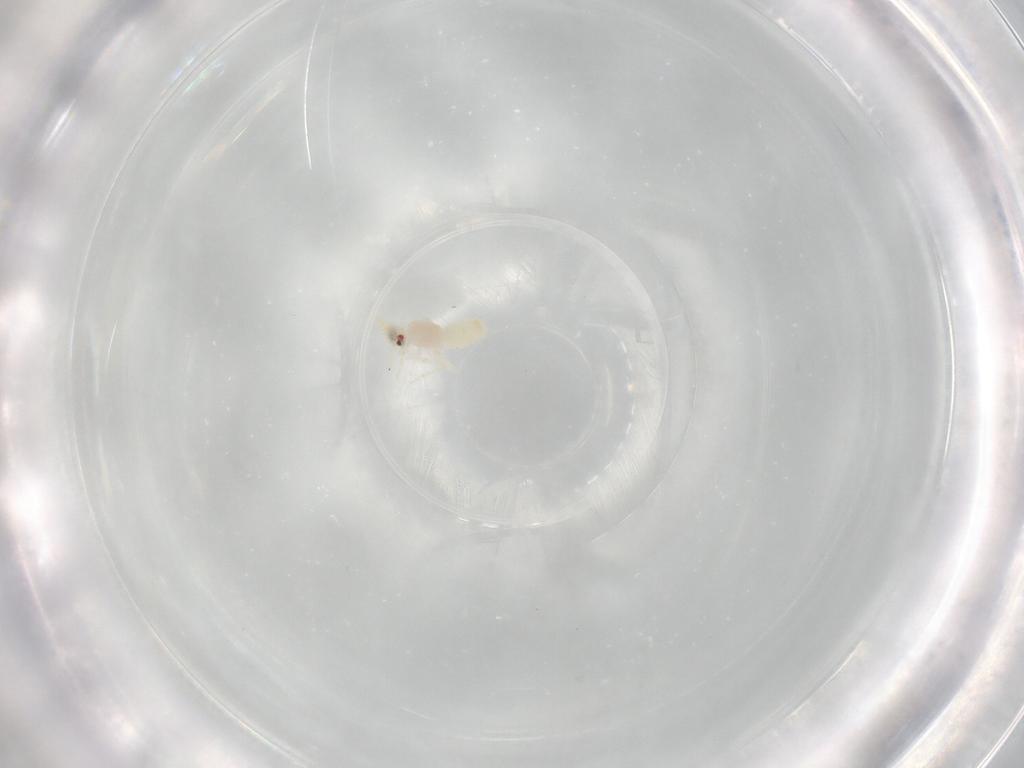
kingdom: Animalia
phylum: Arthropoda
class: Insecta
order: Hemiptera
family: Aleyrodidae
